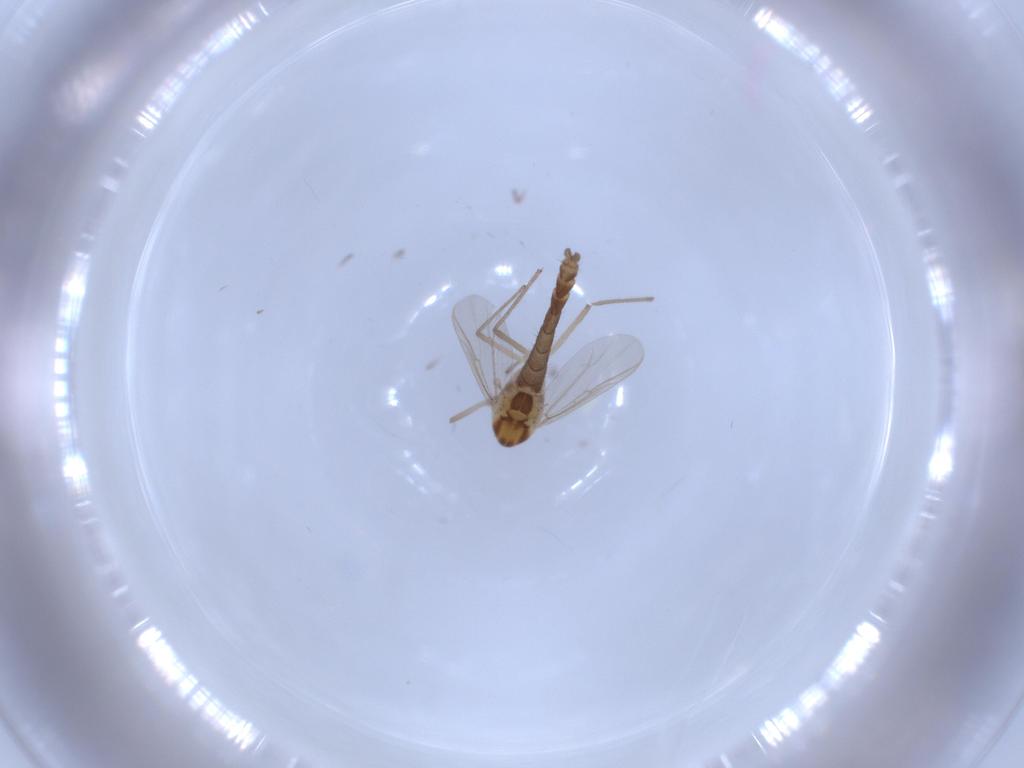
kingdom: Animalia
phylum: Arthropoda
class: Insecta
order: Diptera
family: Chironomidae
